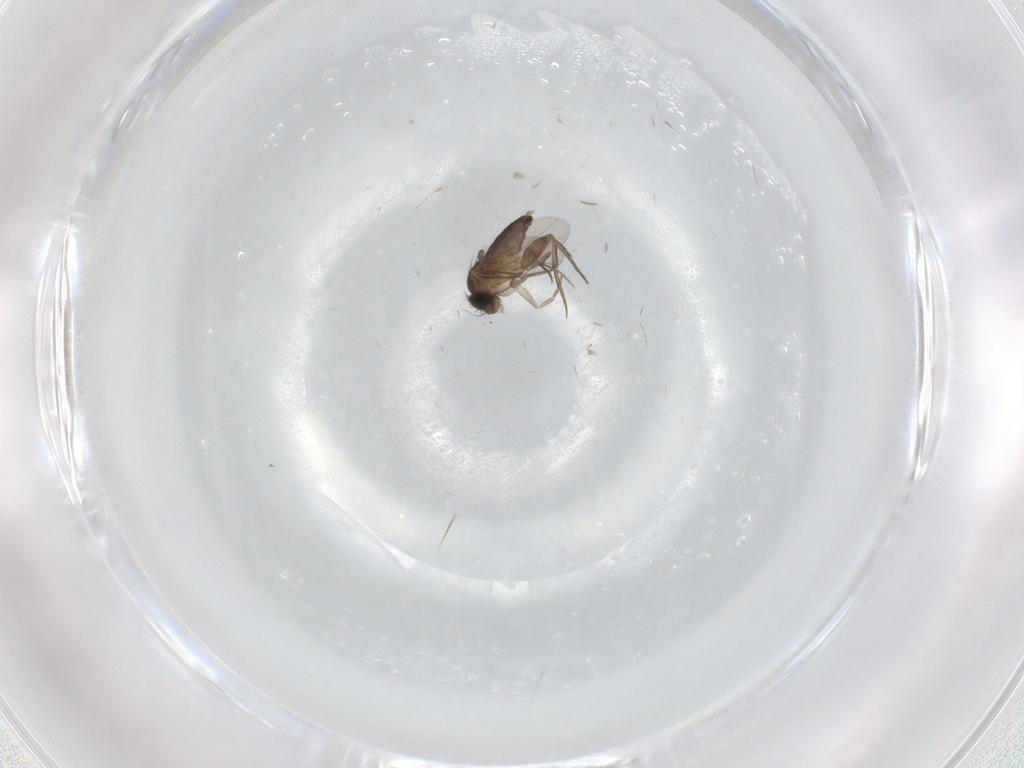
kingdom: Animalia
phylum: Arthropoda
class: Insecta
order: Diptera
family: Phoridae
